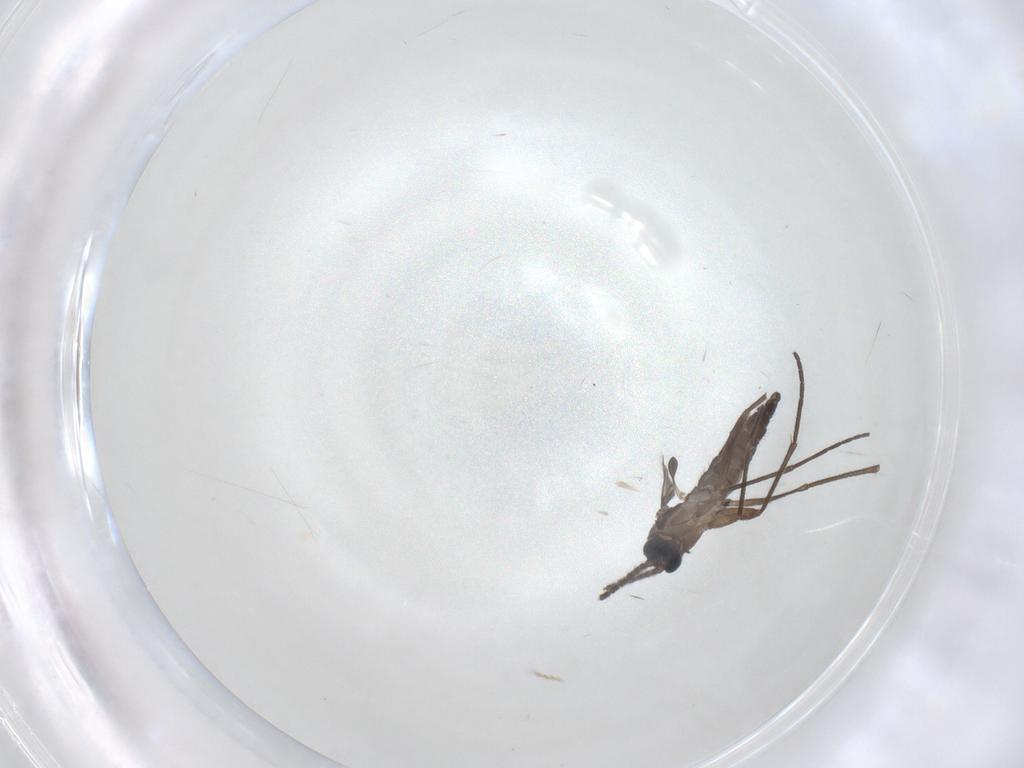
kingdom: Animalia
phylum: Arthropoda
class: Insecta
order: Diptera
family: Sciaridae
